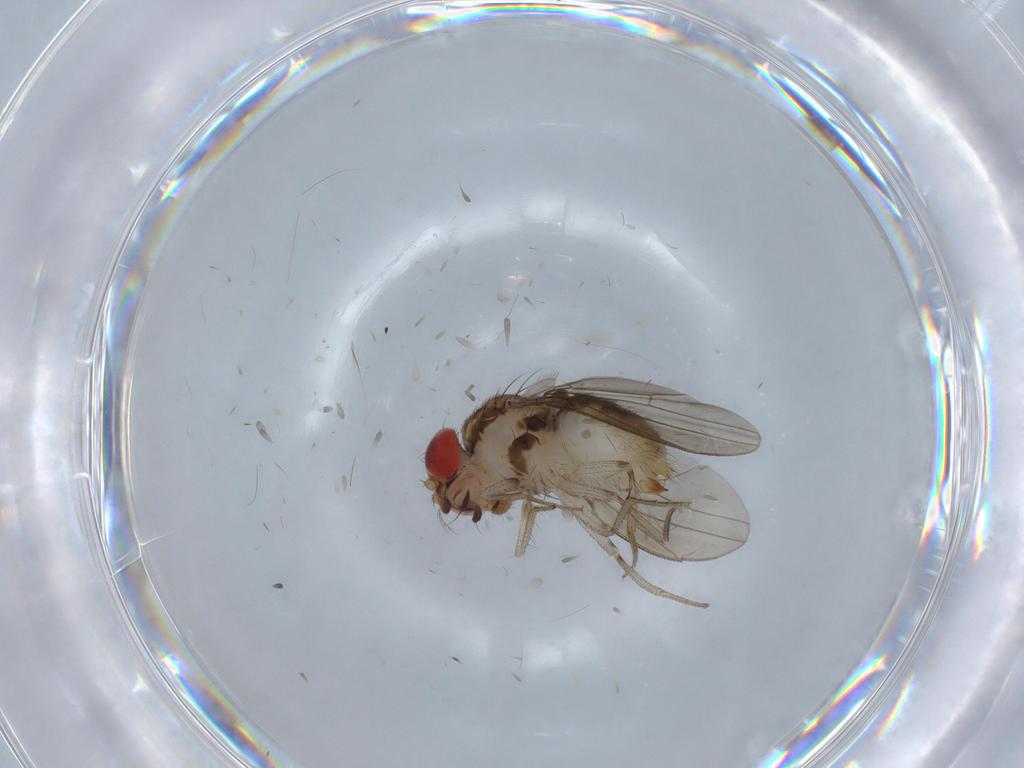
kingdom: Animalia
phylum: Arthropoda
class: Insecta
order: Diptera
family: Drosophilidae
